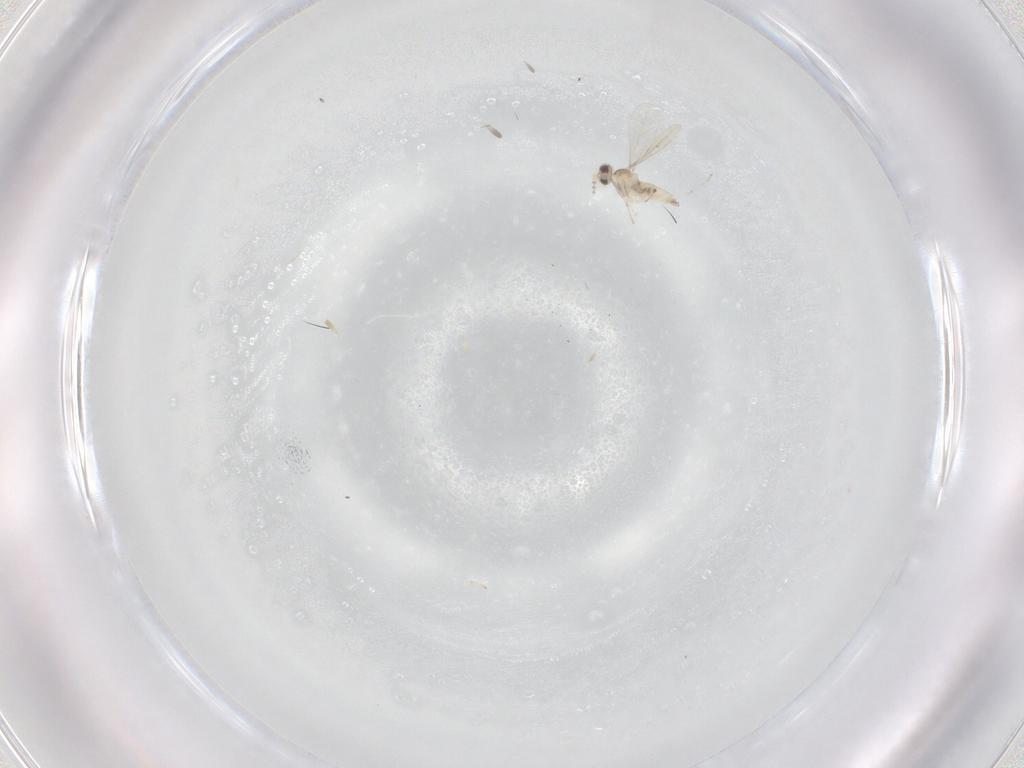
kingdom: Animalia
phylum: Arthropoda
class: Insecta
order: Diptera
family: Cecidomyiidae
